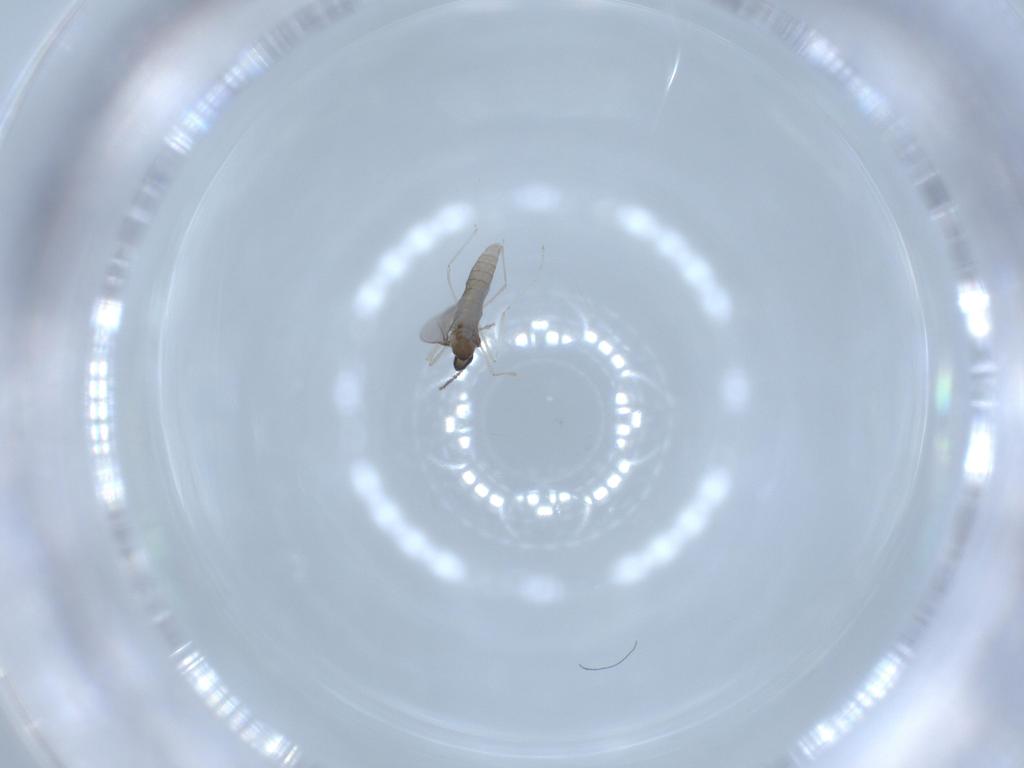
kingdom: Animalia
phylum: Arthropoda
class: Insecta
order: Diptera
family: Cecidomyiidae
